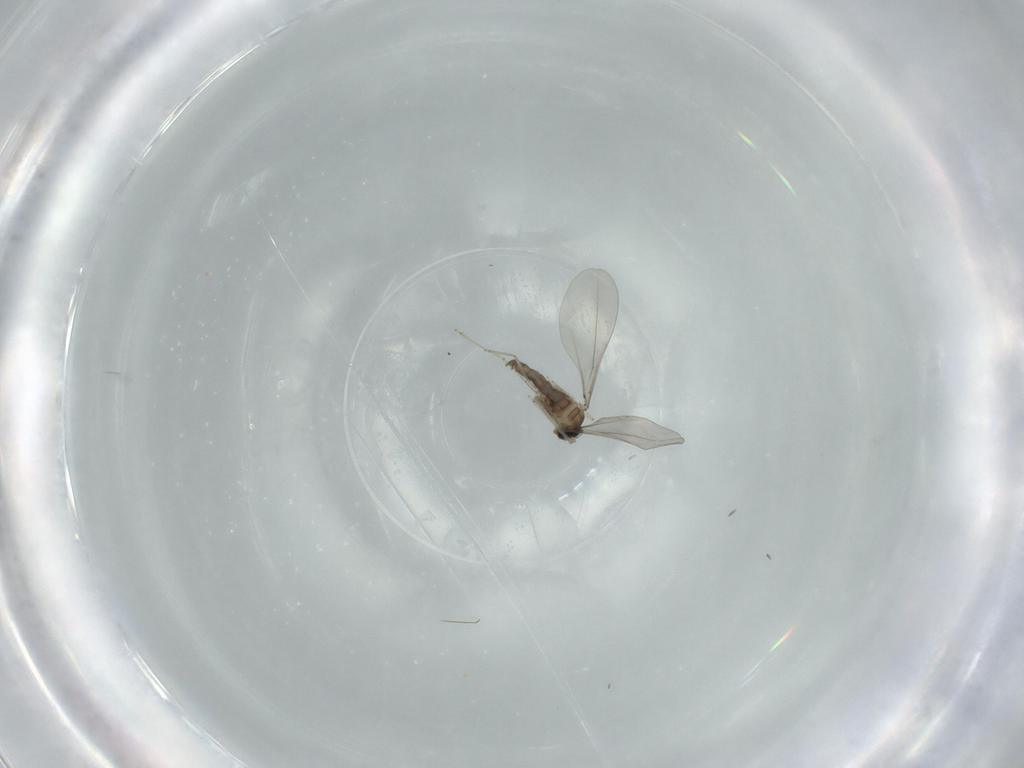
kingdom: Animalia
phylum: Arthropoda
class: Insecta
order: Diptera
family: Cecidomyiidae
